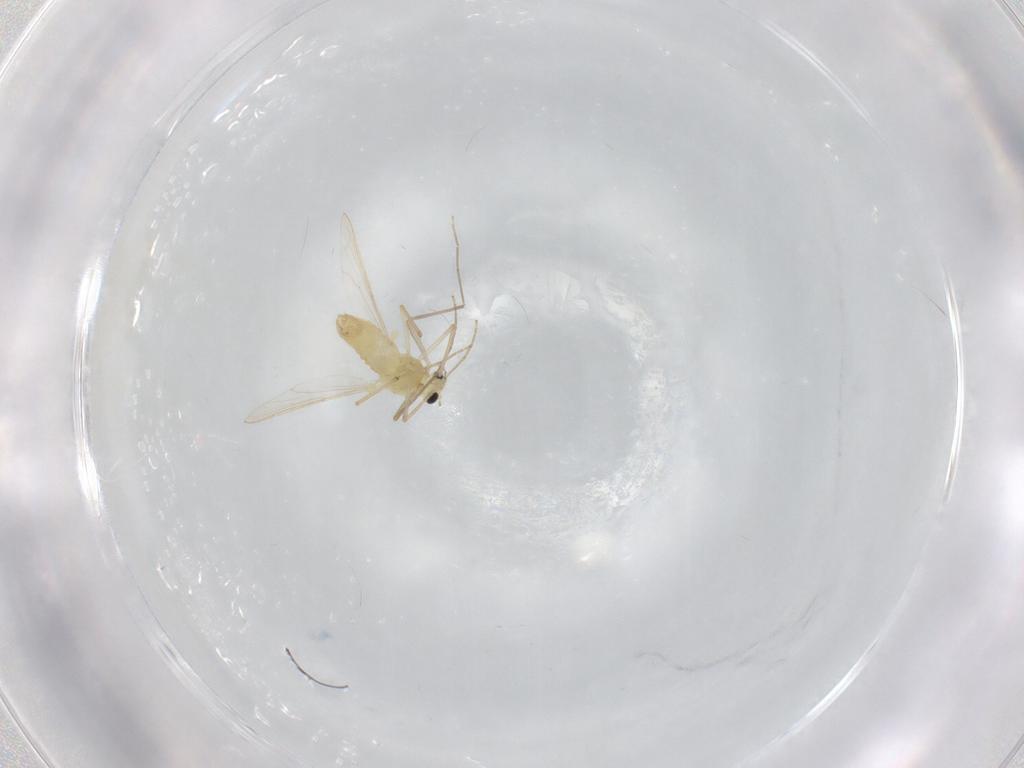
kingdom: Animalia
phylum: Arthropoda
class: Insecta
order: Diptera
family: Chironomidae
